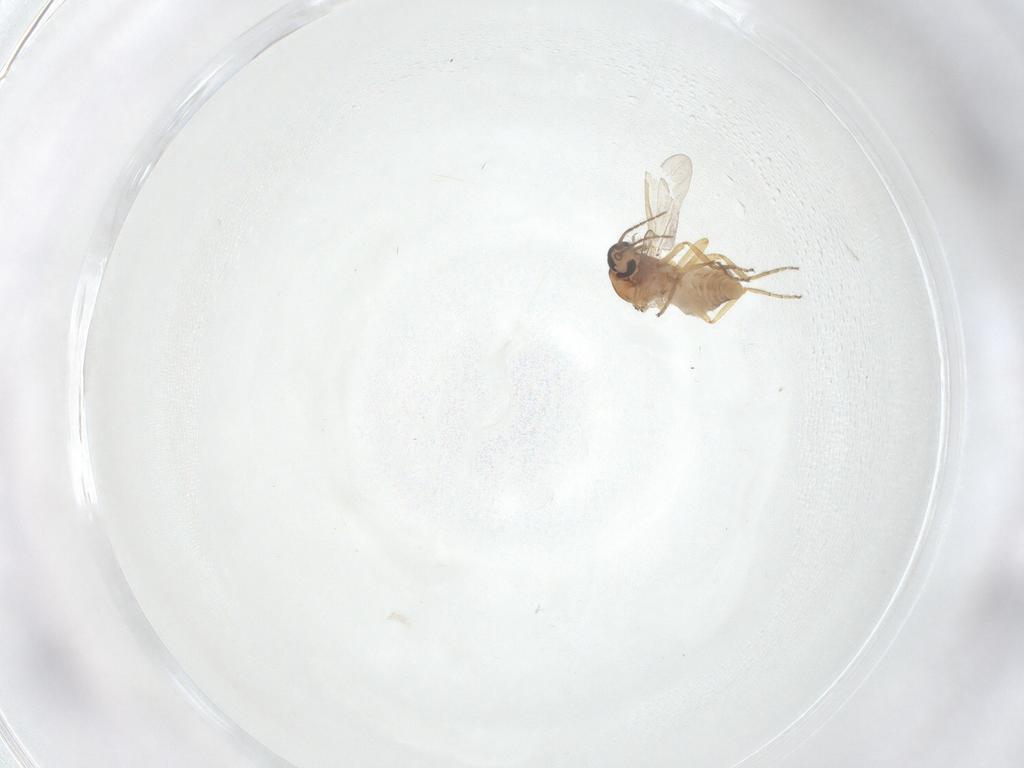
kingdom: Animalia
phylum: Arthropoda
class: Insecta
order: Diptera
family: Ceratopogonidae
